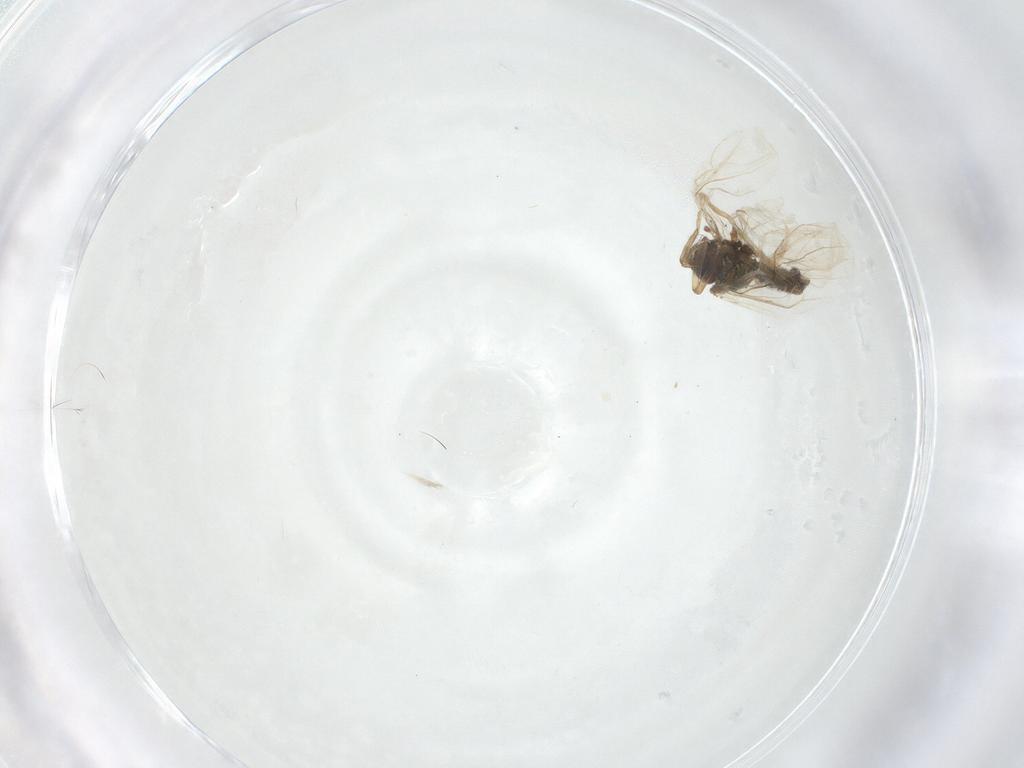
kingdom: Animalia
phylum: Arthropoda
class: Insecta
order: Neuroptera
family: Coniopterygidae
